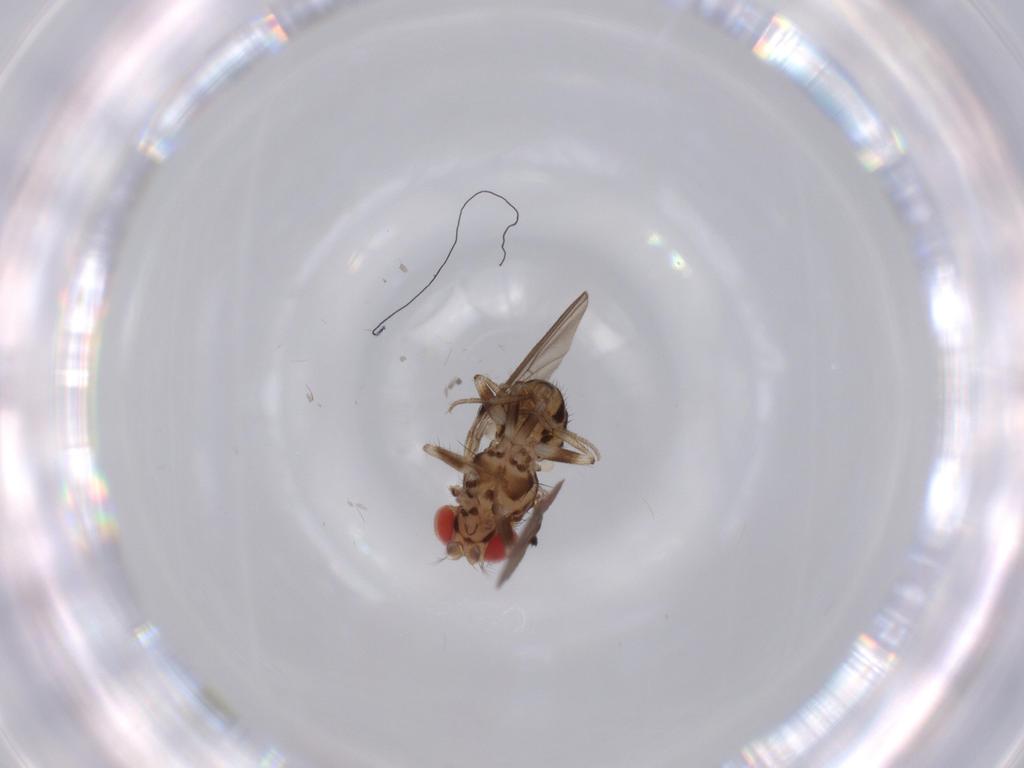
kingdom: Animalia
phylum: Arthropoda
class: Insecta
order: Diptera
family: Drosophilidae
